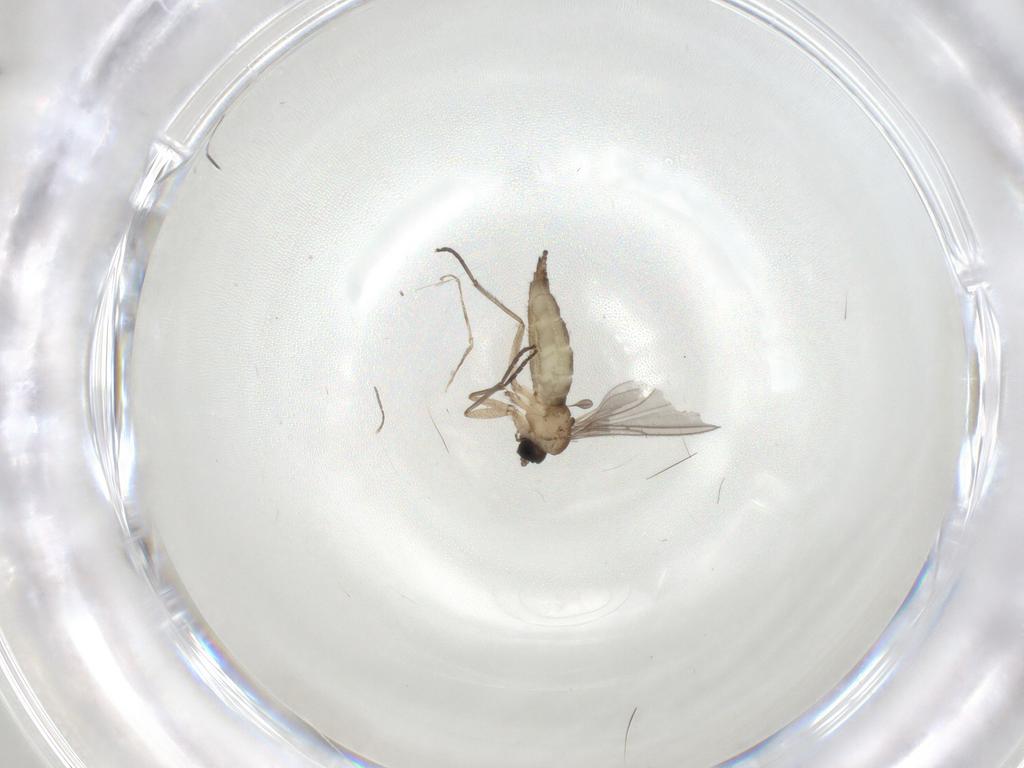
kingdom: Animalia
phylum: Arthropoda
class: Insecta
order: Diptera
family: Sciaridae
